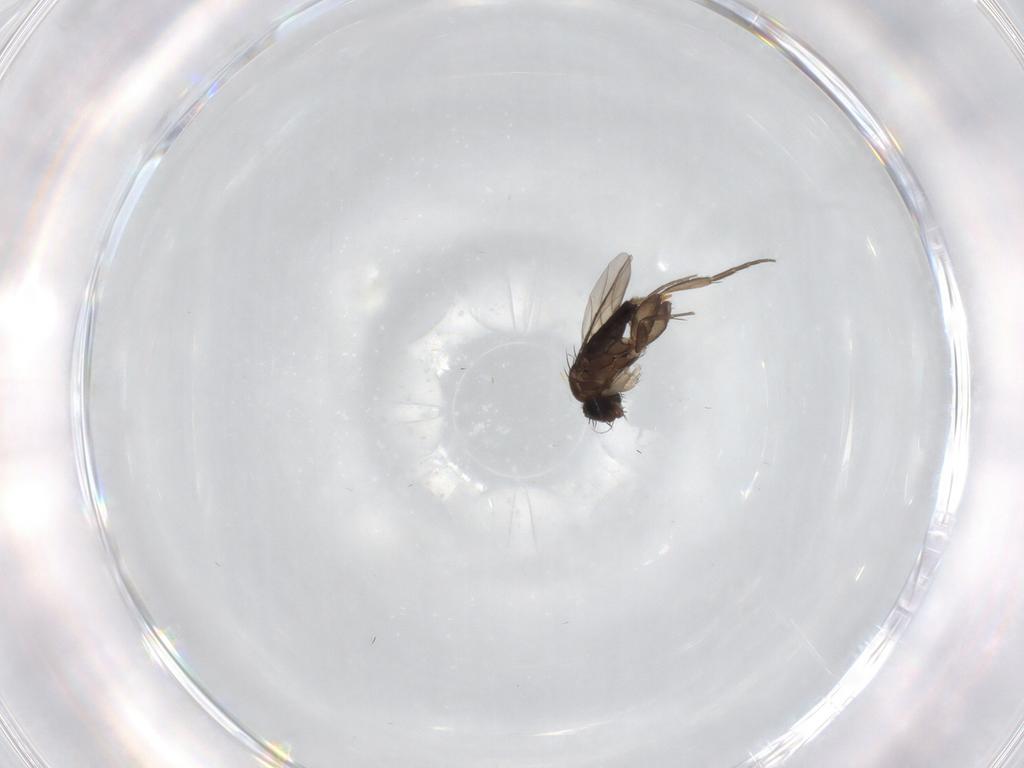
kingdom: Animalia
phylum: Arthropoda
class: Insecta
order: Diptera
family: Phoridae
